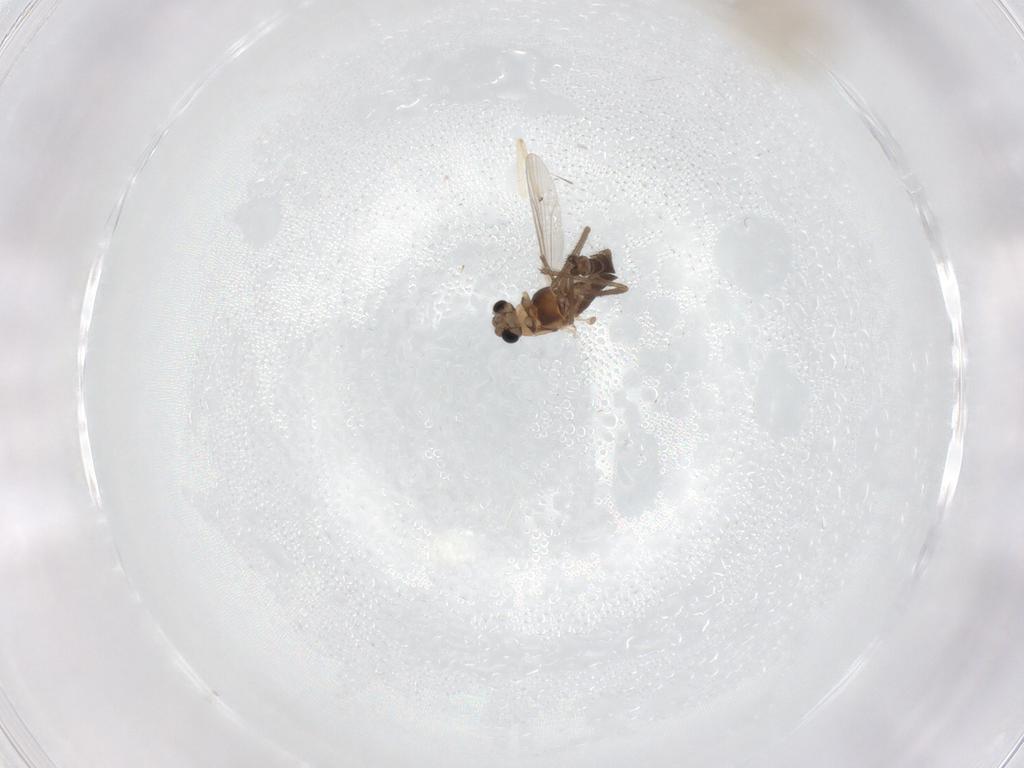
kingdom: Animalia
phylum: Arthropoda
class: Insecta
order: Diptera
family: Chironomidae
